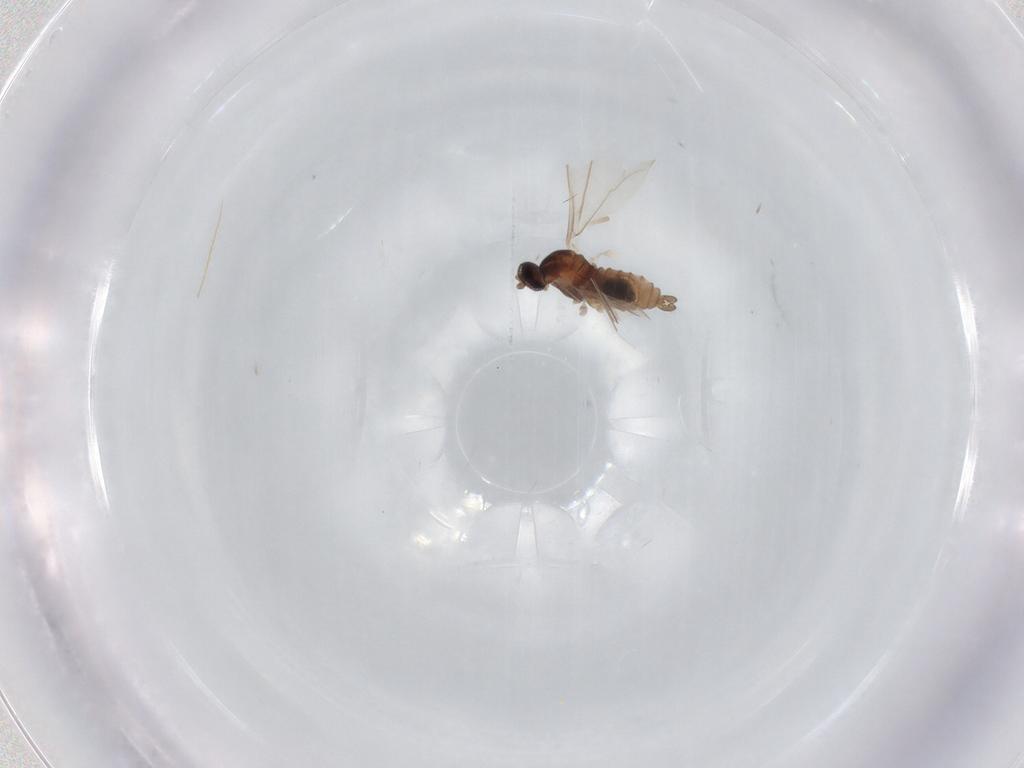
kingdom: Animalia
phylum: Arthropoda
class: Insecta
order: Diptera
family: Cecidomyiidae
